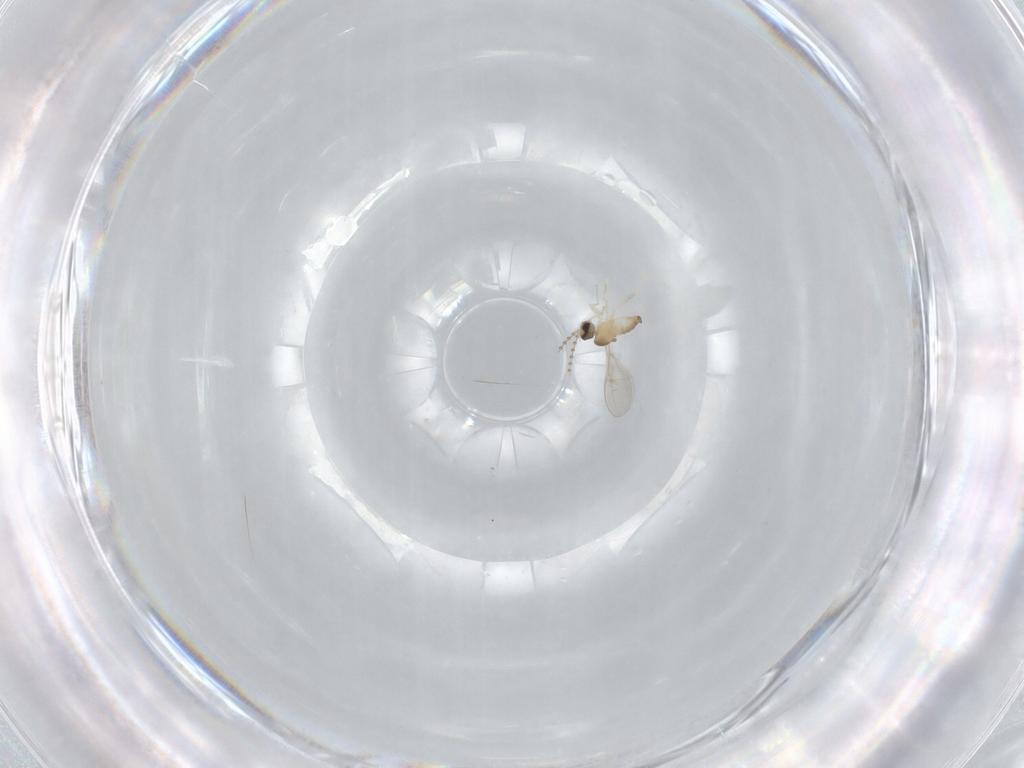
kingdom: Animalia
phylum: Arthropoda
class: Insecta
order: Diptera
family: Cecidomyiidae
